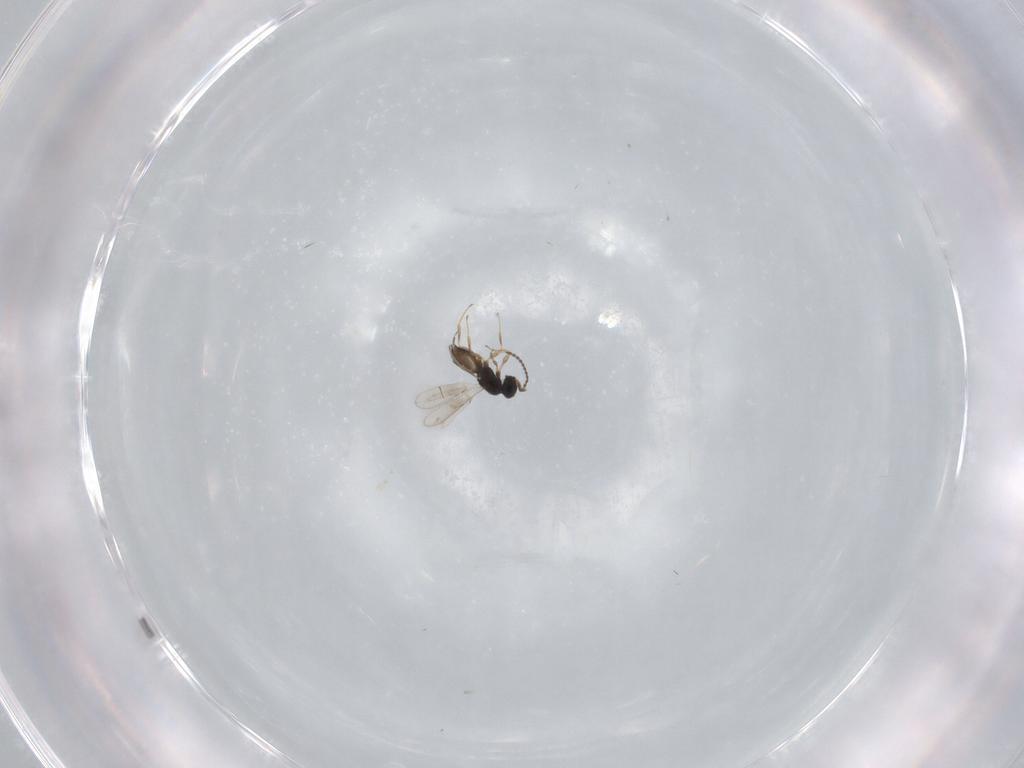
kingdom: Animalia
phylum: Arthropoda
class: Insecta
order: Hymenoptera
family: Scelionidae
